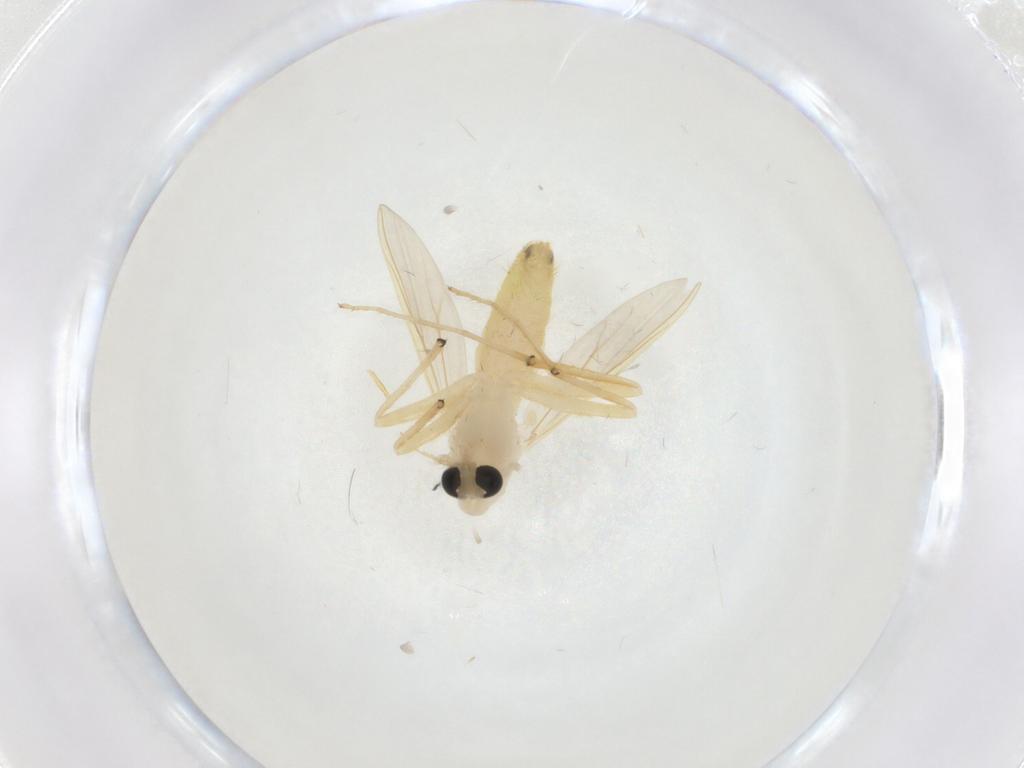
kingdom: Animalia
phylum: Arthropoda
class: Insecta
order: Diptera
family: Chironomidae
